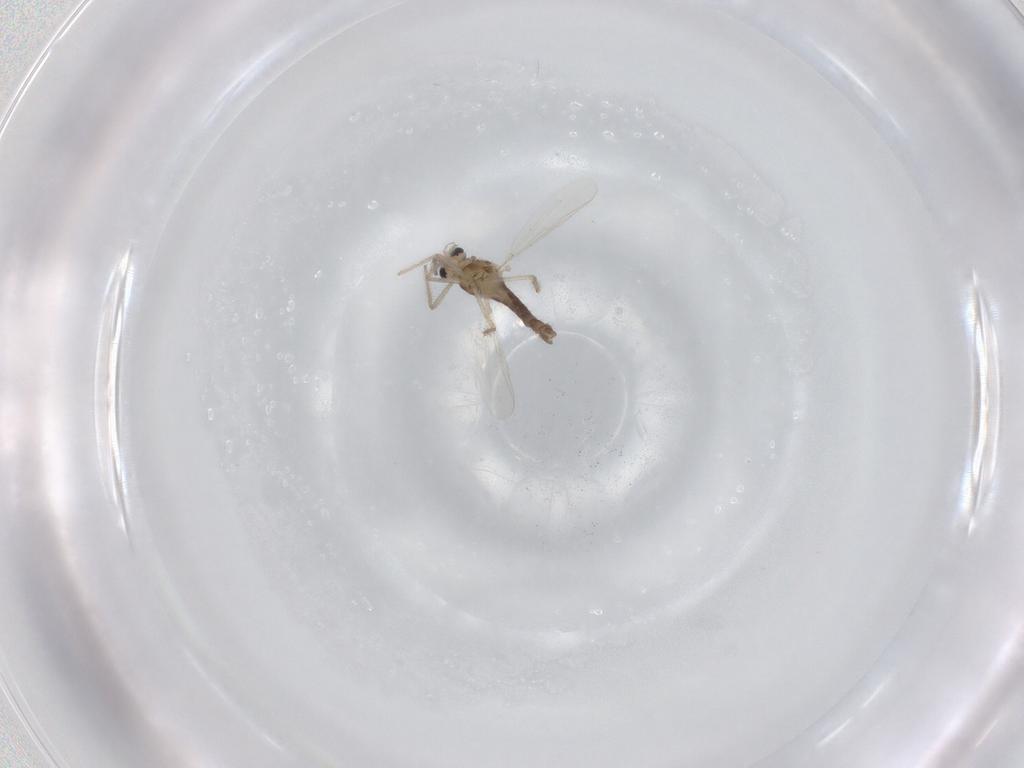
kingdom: Animalia
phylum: Arthropoda
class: Insecta
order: Diptera
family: Chironomidae
